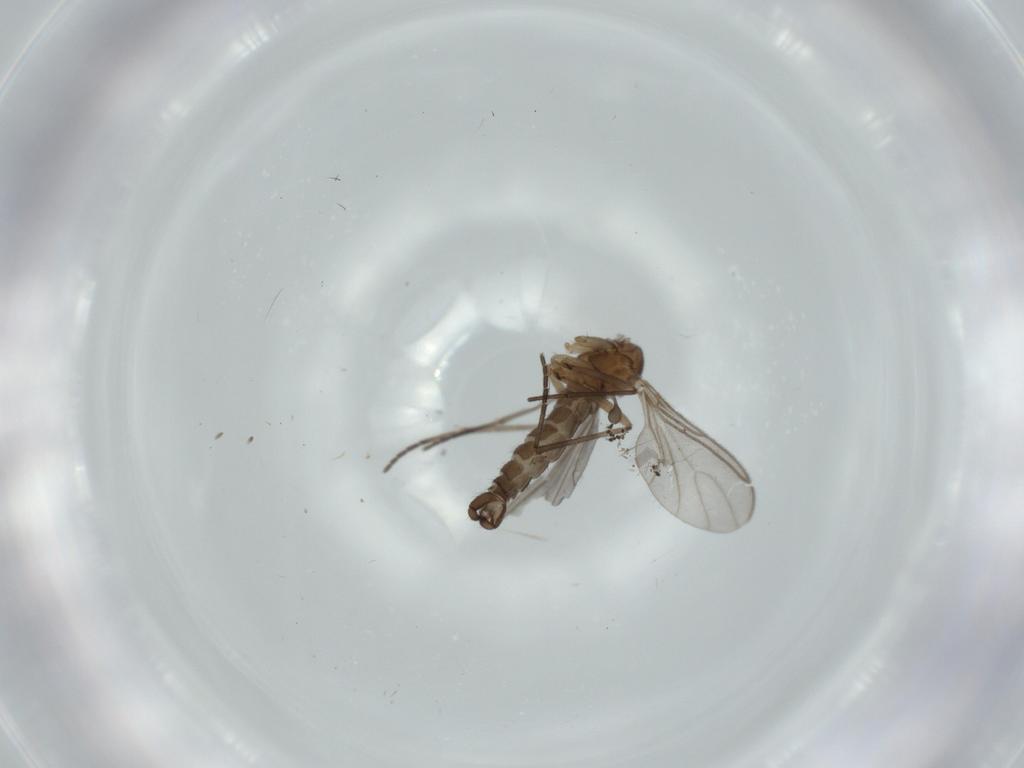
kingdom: Animalia
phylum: Arthropoda
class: Insecta
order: Diptera
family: Sciaridae
